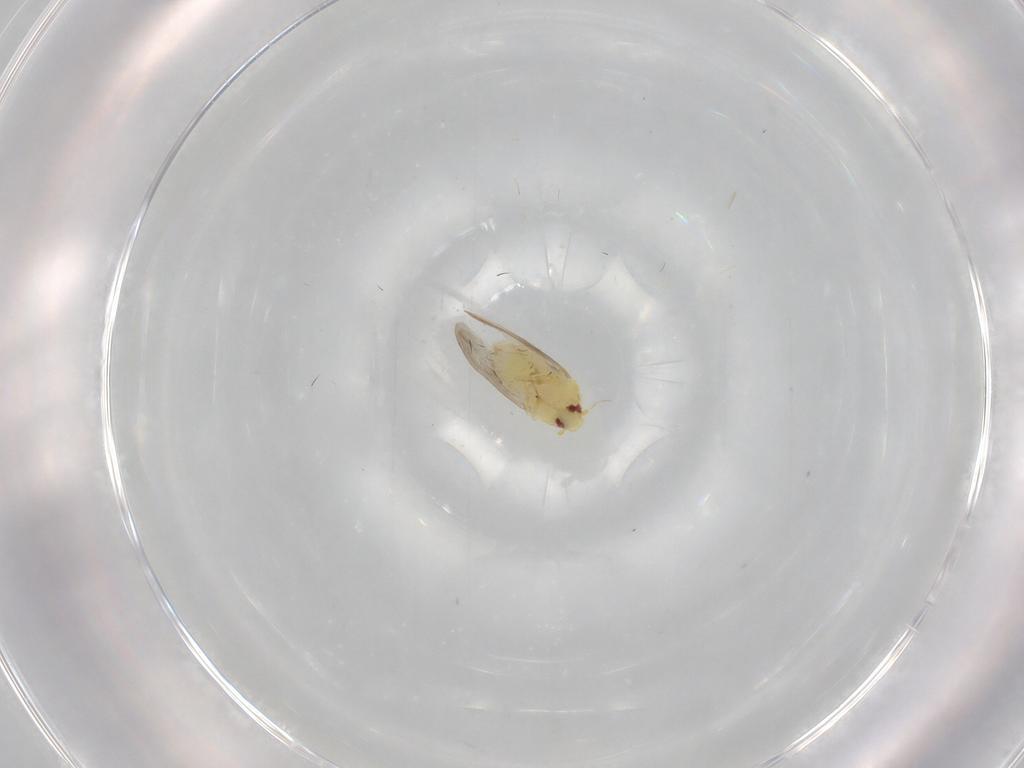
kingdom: Animalia
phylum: Arthropoda
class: Insecta
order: Hemiptera
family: Aleyrodidae
